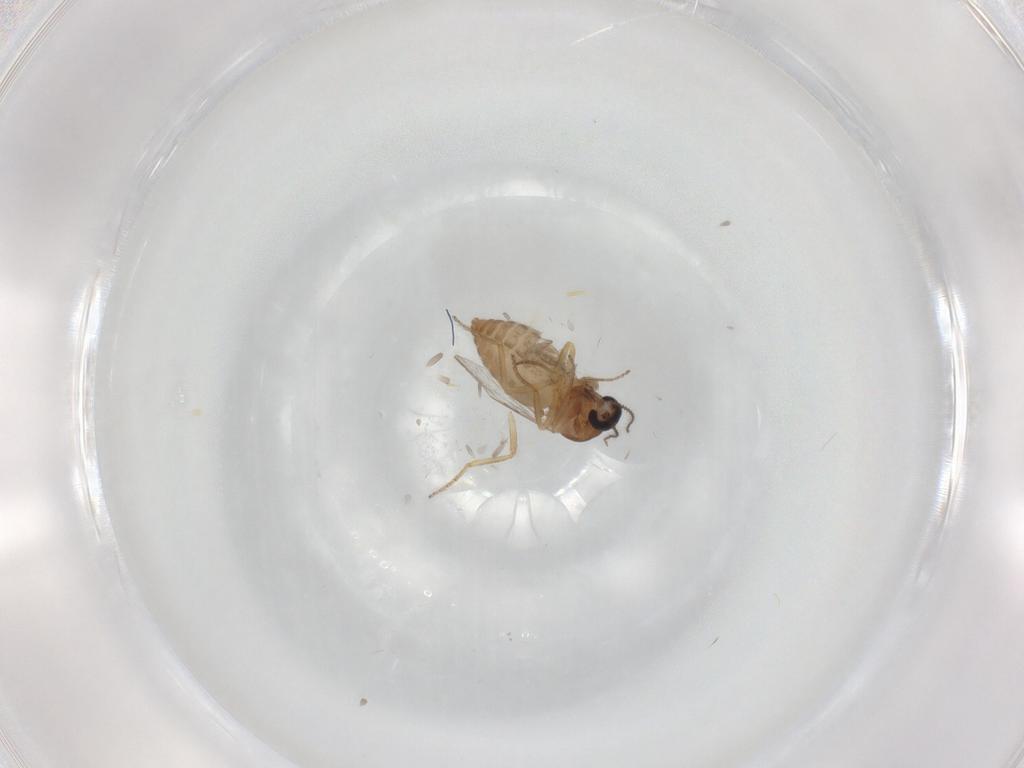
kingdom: Animalia
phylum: Arthropoda
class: Insecta
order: Diptera
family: Ceratopogonidae
